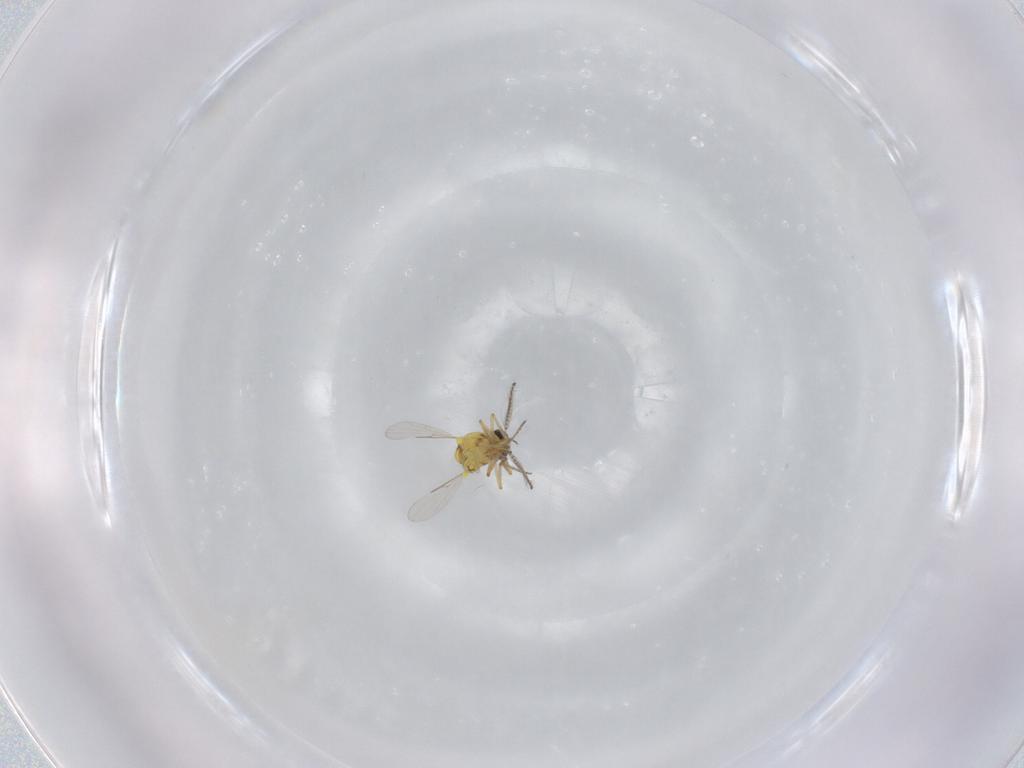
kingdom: Animalia
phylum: Arthropoda
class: Insecta
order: Diptera
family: Ceratopogonidae
